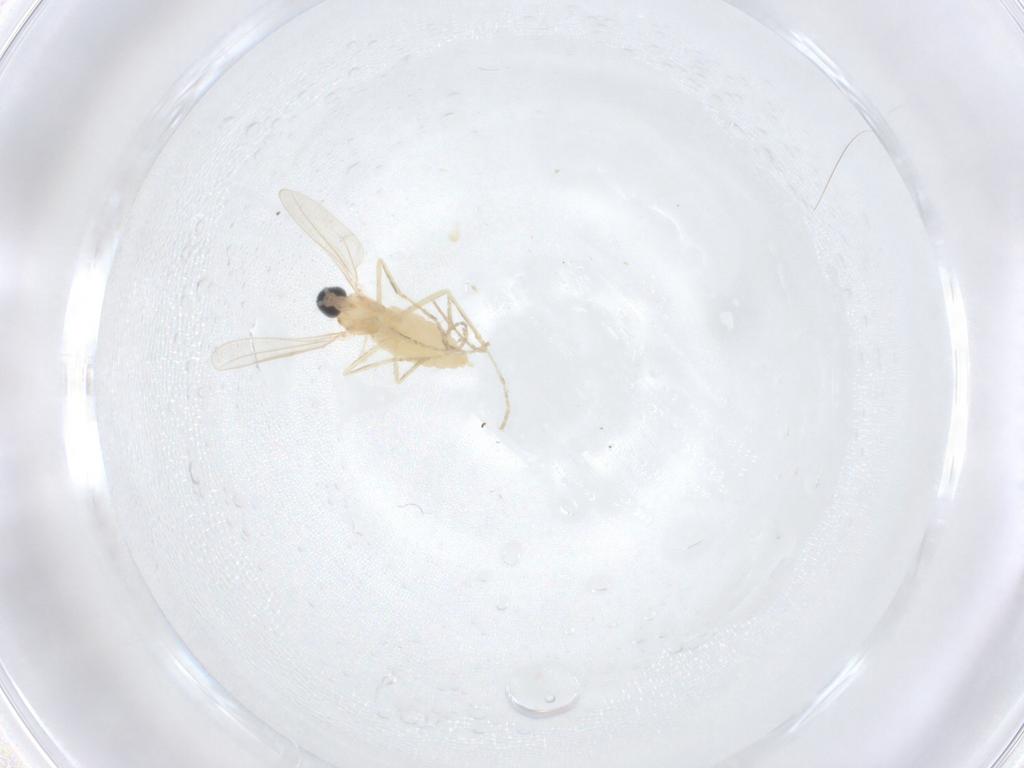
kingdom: Animalia
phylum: Arthropoda
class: Insecta
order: Diptera
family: Cecidomyiidae
